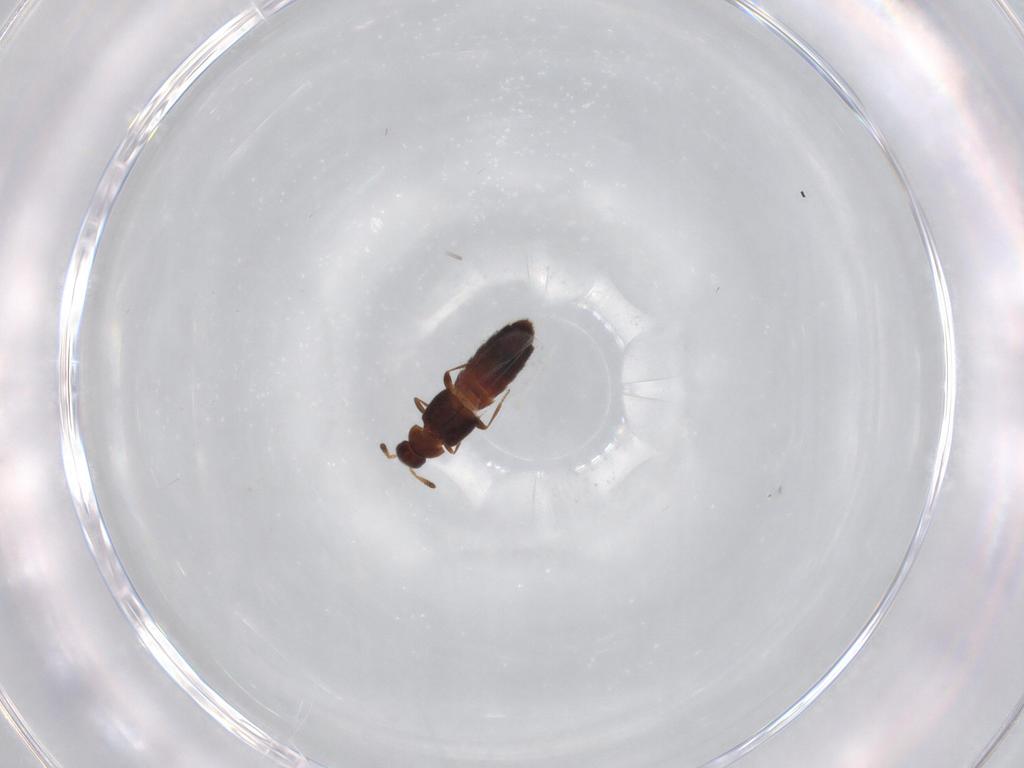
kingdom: Animalia
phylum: Arthropoda
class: Insecta
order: Coleoptera
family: Staphylinidae
